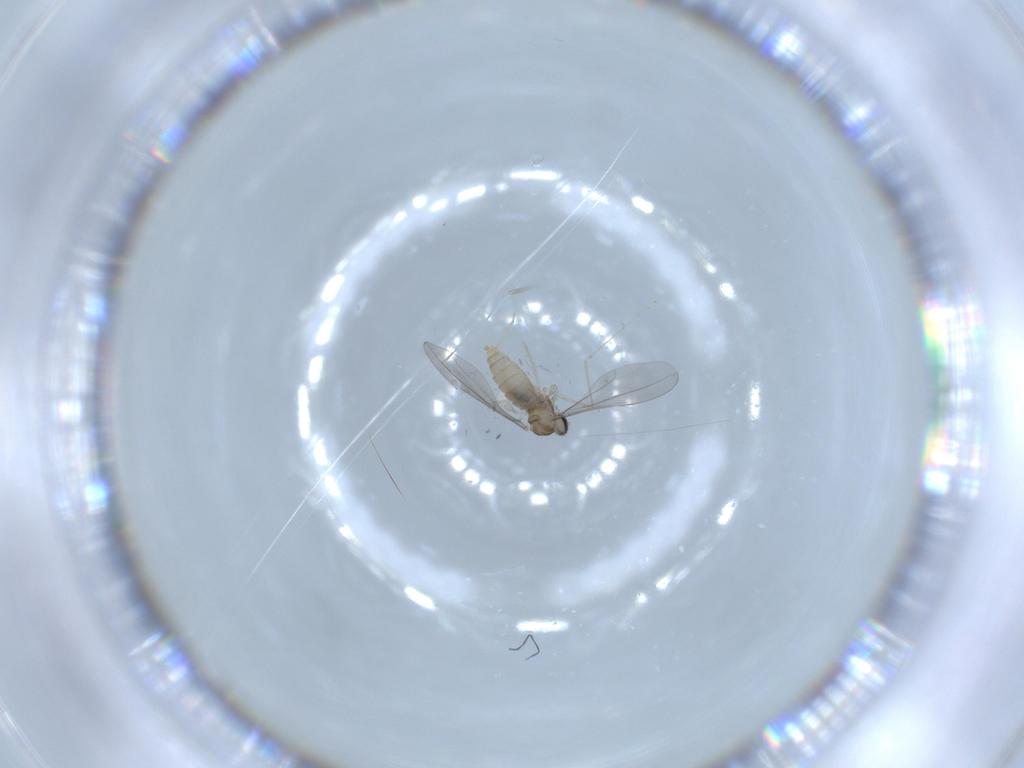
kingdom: Animalia
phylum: Arthropoda
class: Insecta
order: Diptera
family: Cecidomyiidae
